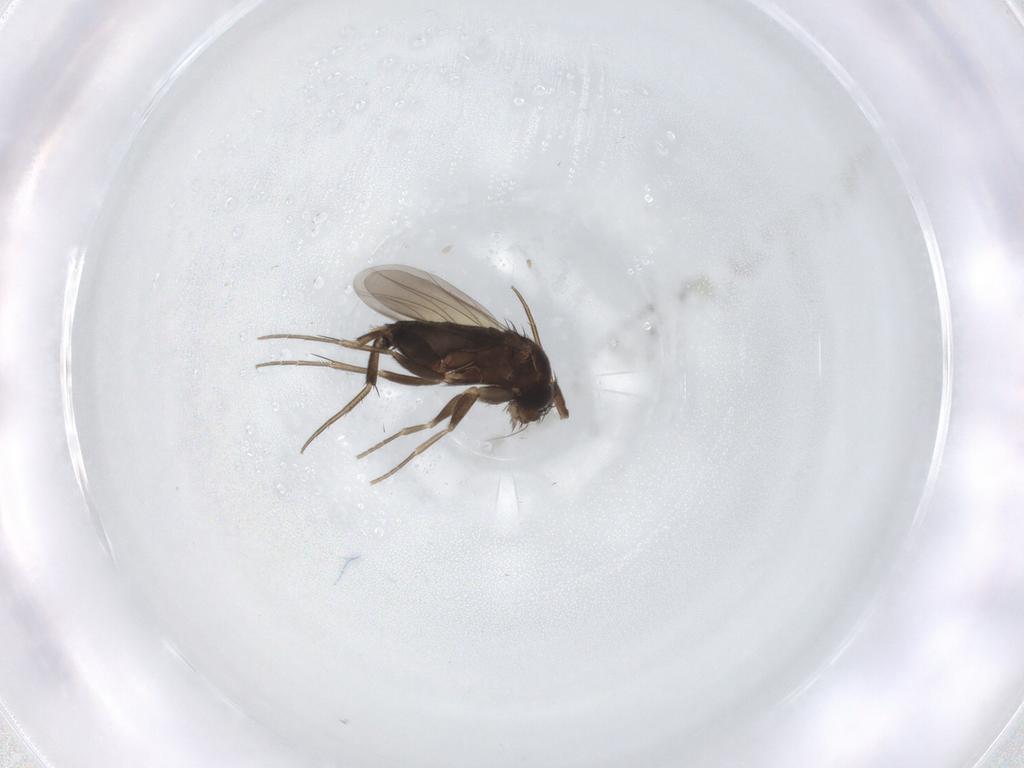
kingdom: Animalia
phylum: Arthropoda
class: Insecta
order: Diptera
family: Phoridae
